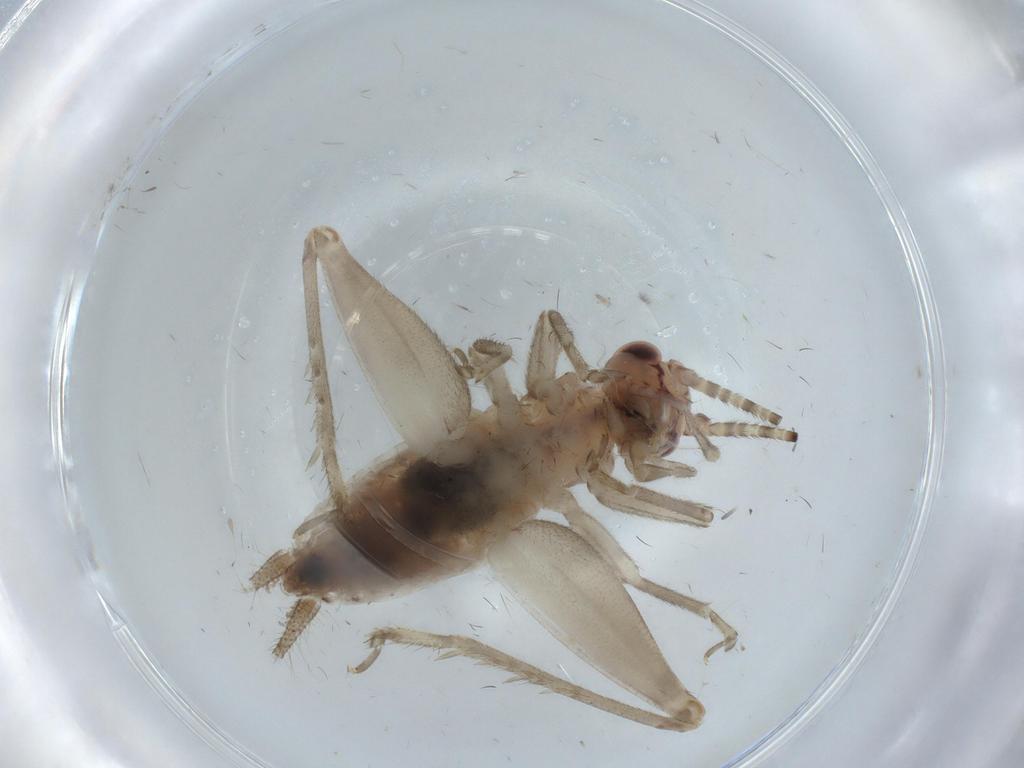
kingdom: Animalia
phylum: Arthropoda
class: Insecta
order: Orthoptera
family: Trigonidiidae
